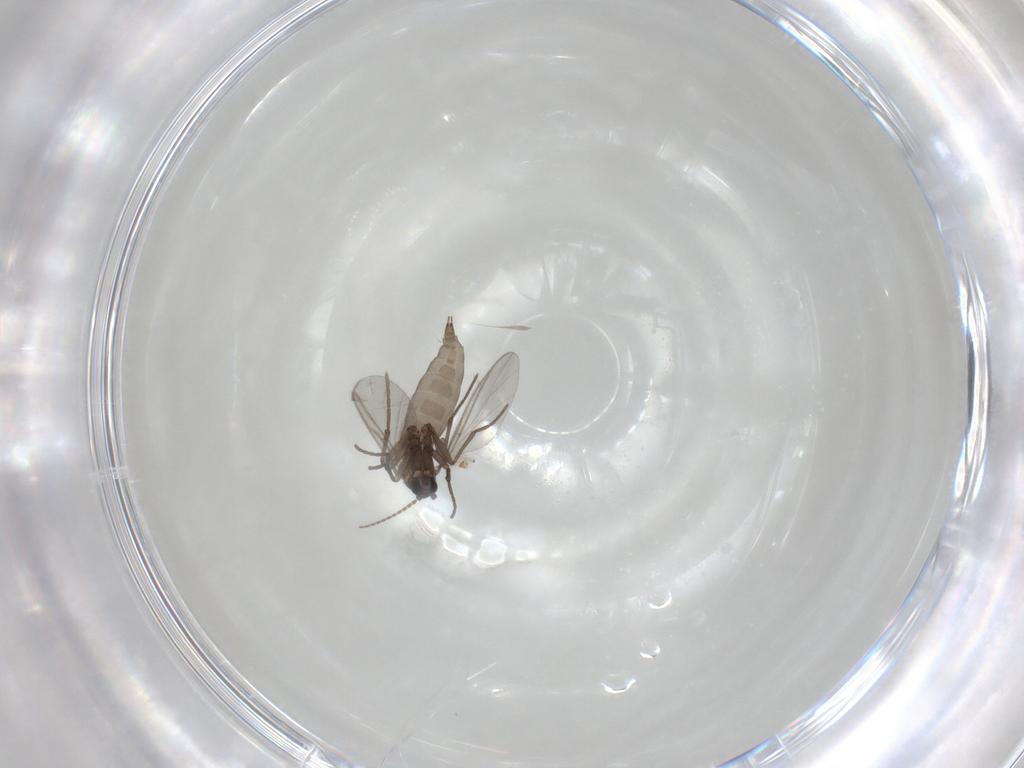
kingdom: Animalia
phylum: Arthropoda
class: Insecta
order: Diptera
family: Sciaridae
